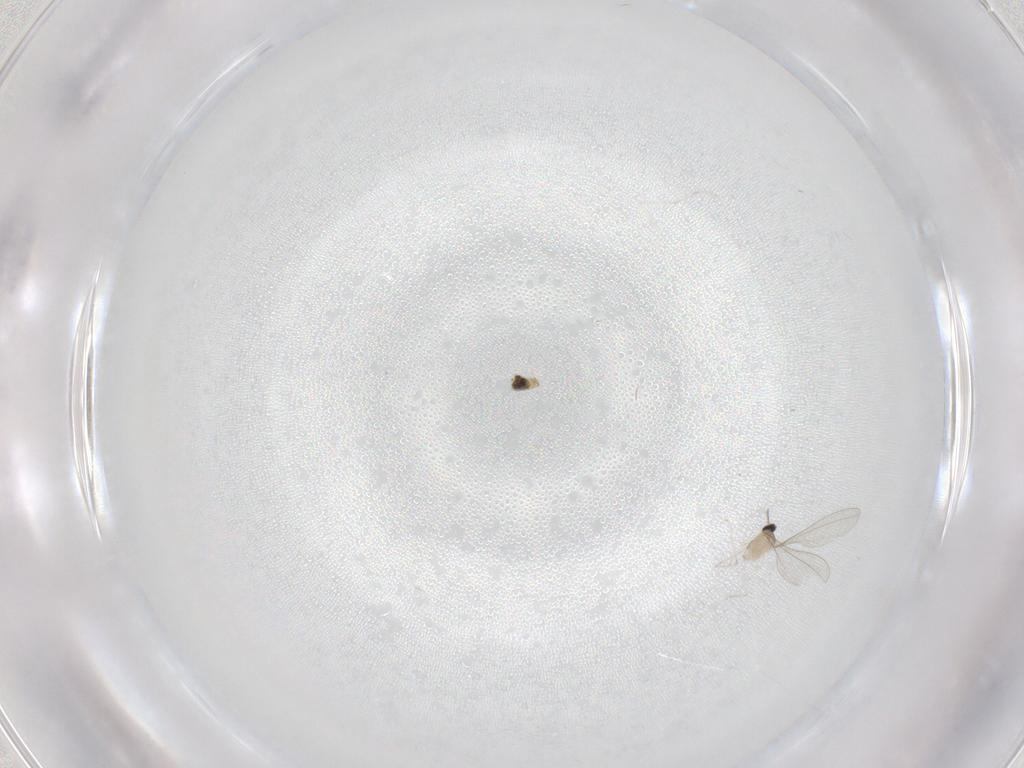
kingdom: Animalia
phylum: Arthropoda
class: Insecta
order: Diptera
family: Cecidomyiidae
